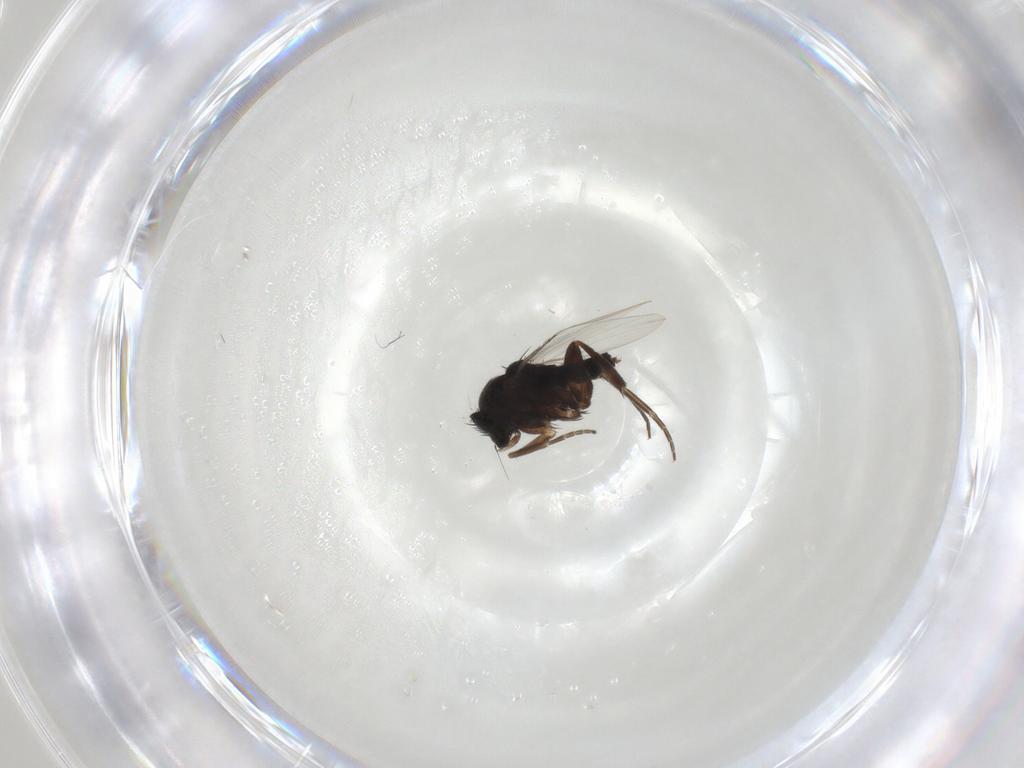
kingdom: Animalia
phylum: Arthropoda
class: Insecta
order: Diptera
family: Phoridae
